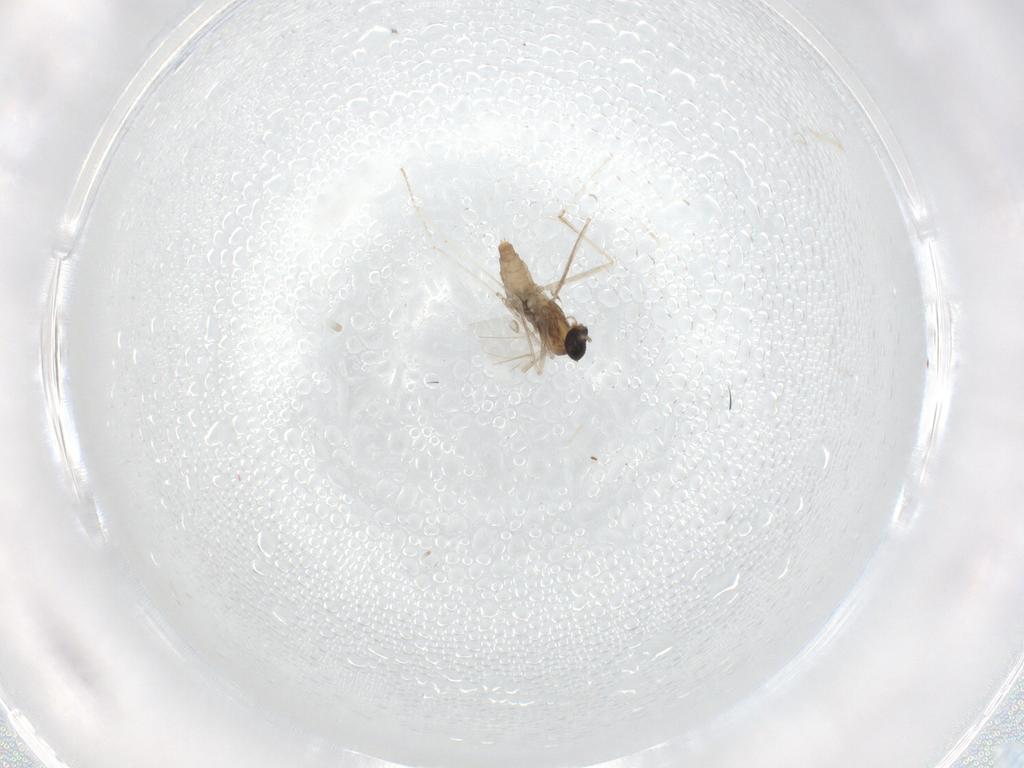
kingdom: Animalia
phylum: Arthropoda
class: Insecta
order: Diptera
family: Cecidomyiidae
